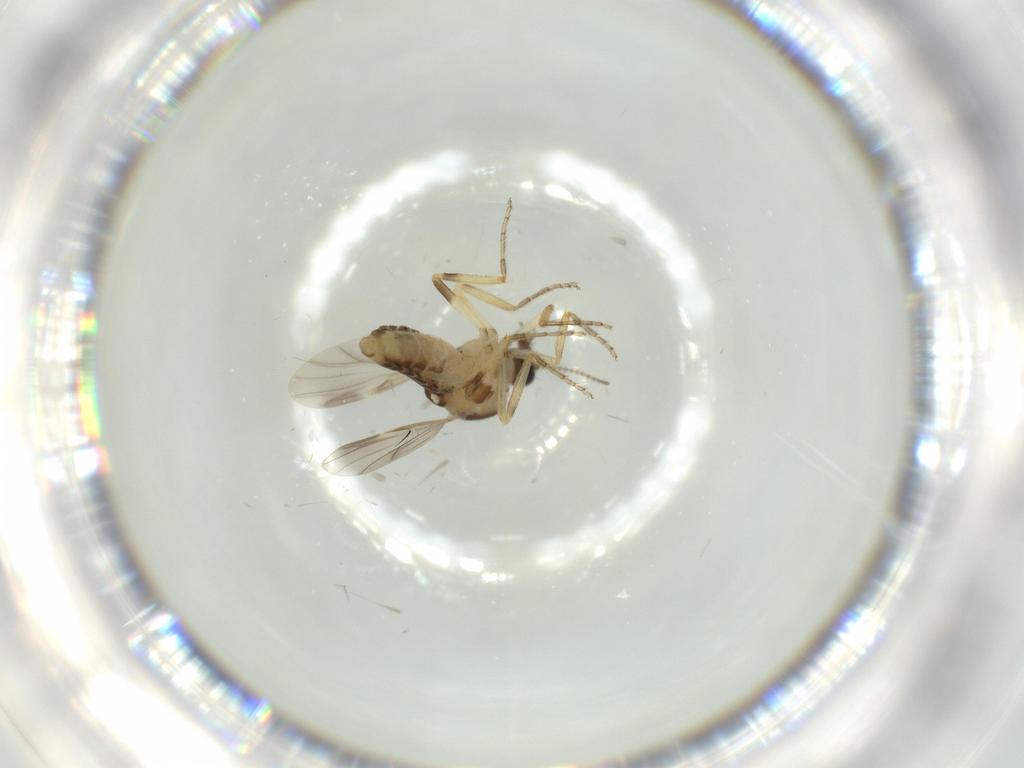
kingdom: Animalia
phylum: Arthropoda
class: Insecta
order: Diptera
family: Ceratopogonidae
